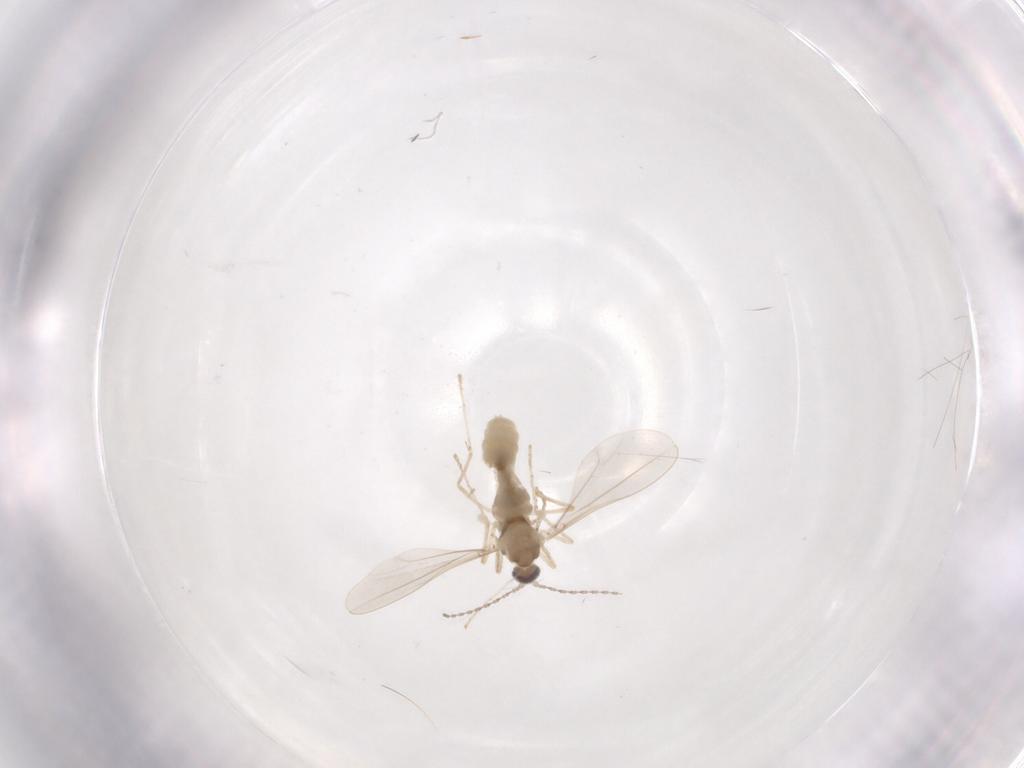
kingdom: Animalia
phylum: Arthropoda
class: Insecta
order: Diptera
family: Cecidomyiidae
